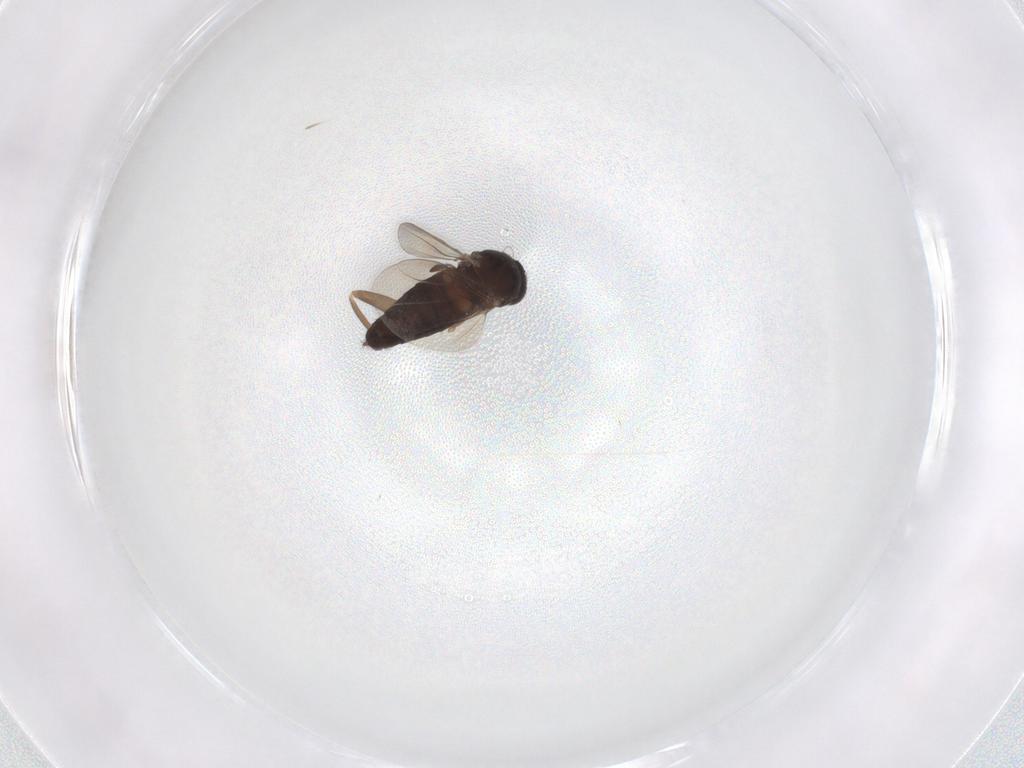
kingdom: Animalia
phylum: Arthropoda
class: Insecta
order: Diptera
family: Phoridae
